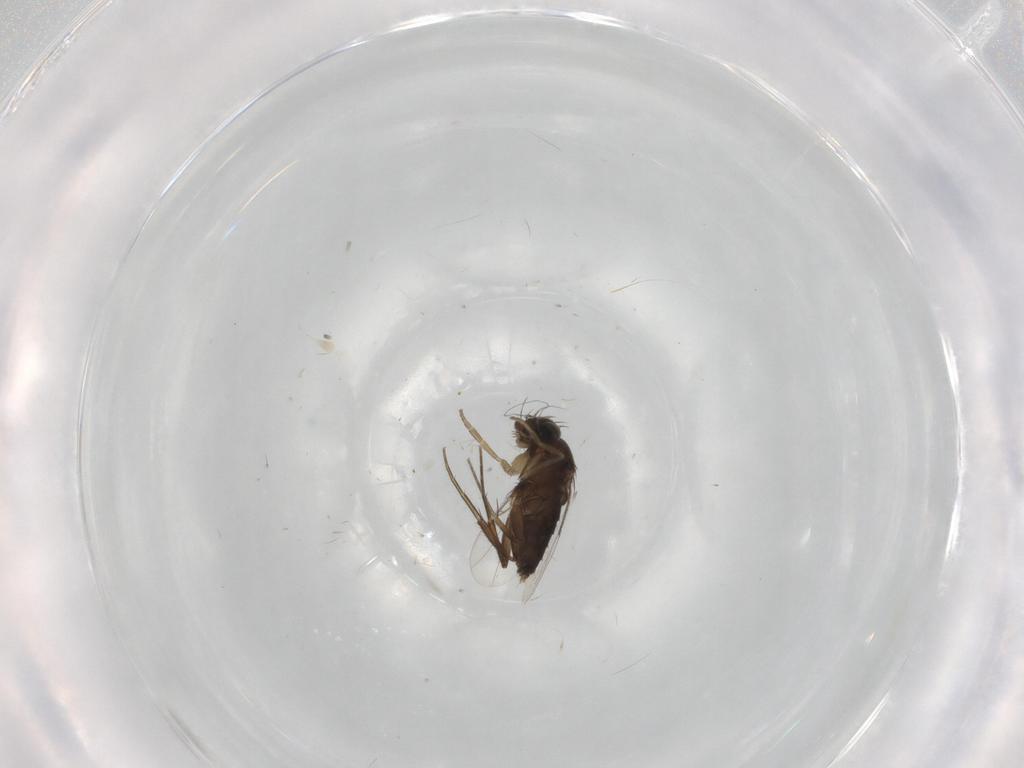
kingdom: Animalia
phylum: Arthropoda
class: Insecta
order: Diptera
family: Phoridae
